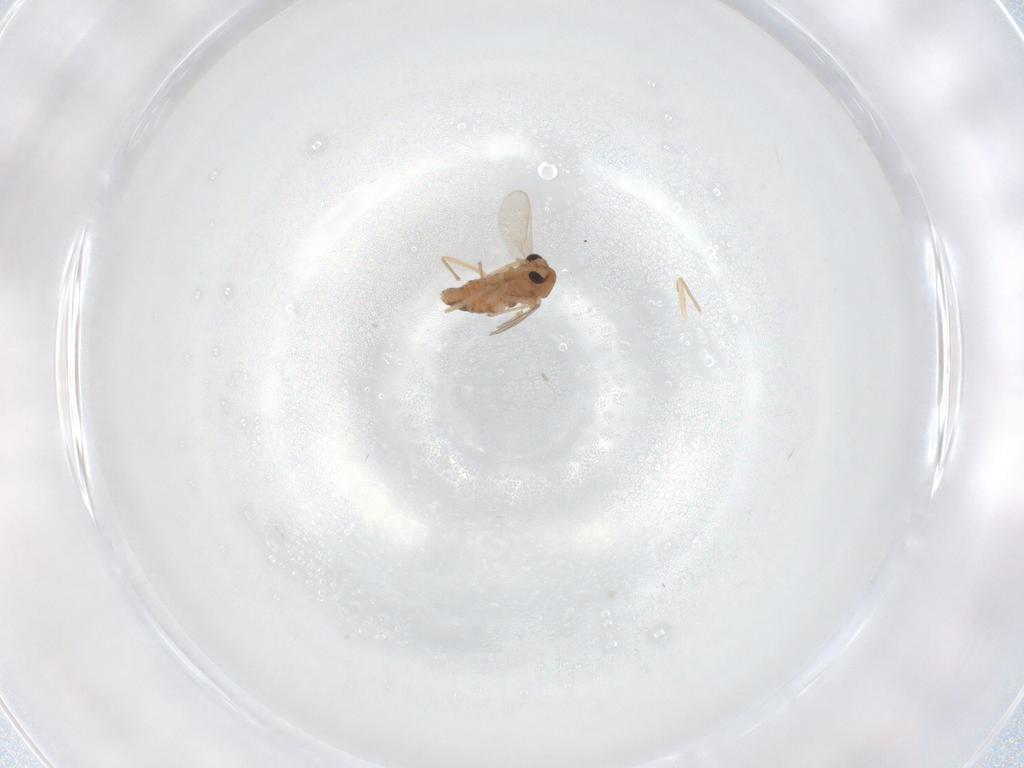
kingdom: Animalia
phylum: Arthropoda
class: Insecta
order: Diptera
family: Chironomidae
